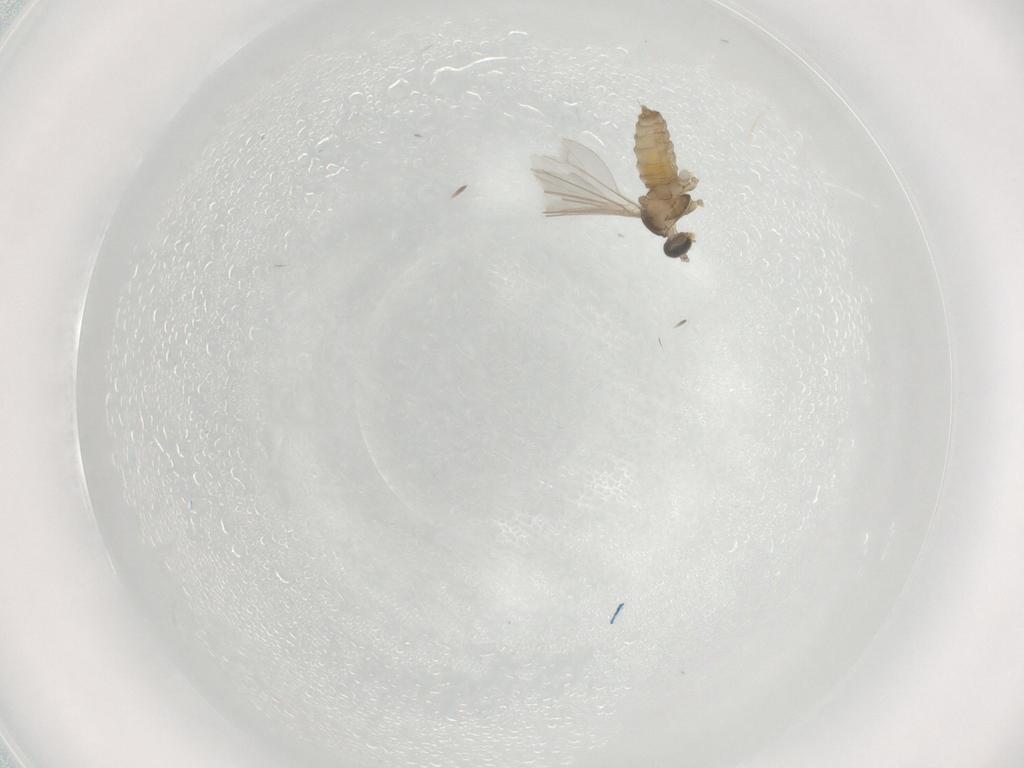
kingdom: Animalia
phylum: Arthropoda
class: Insecta
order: Diptera
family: Cecidomyiidae
